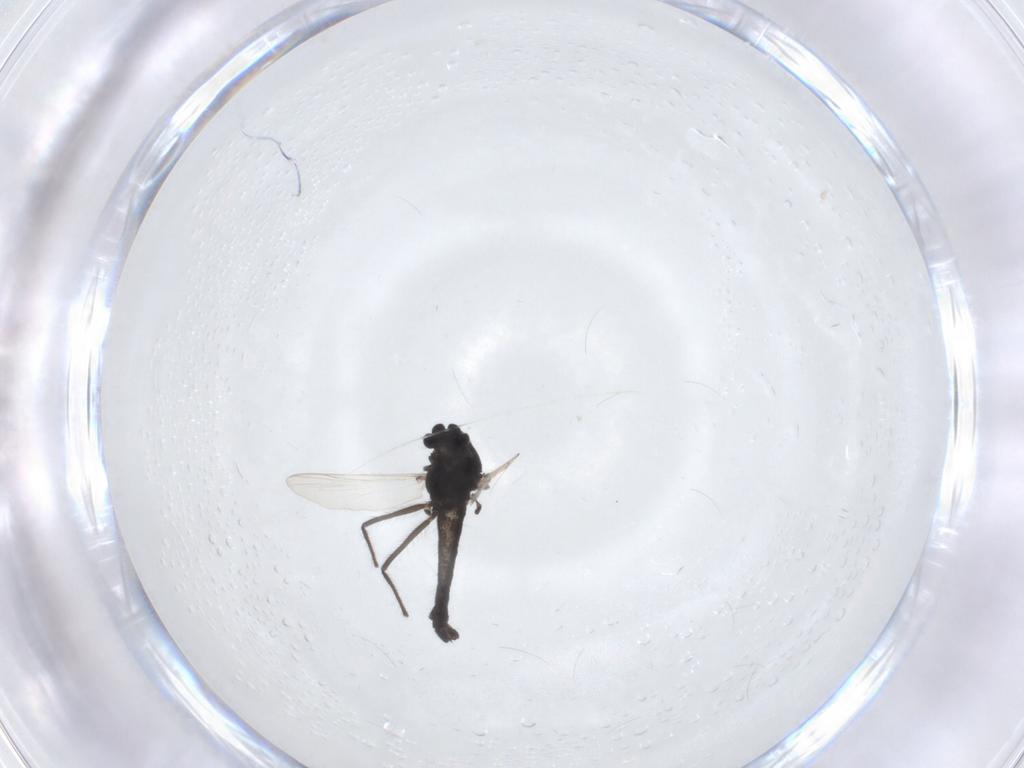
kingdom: Animalia
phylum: Arthropoda
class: Insecta
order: Diptera
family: Chironomidae
